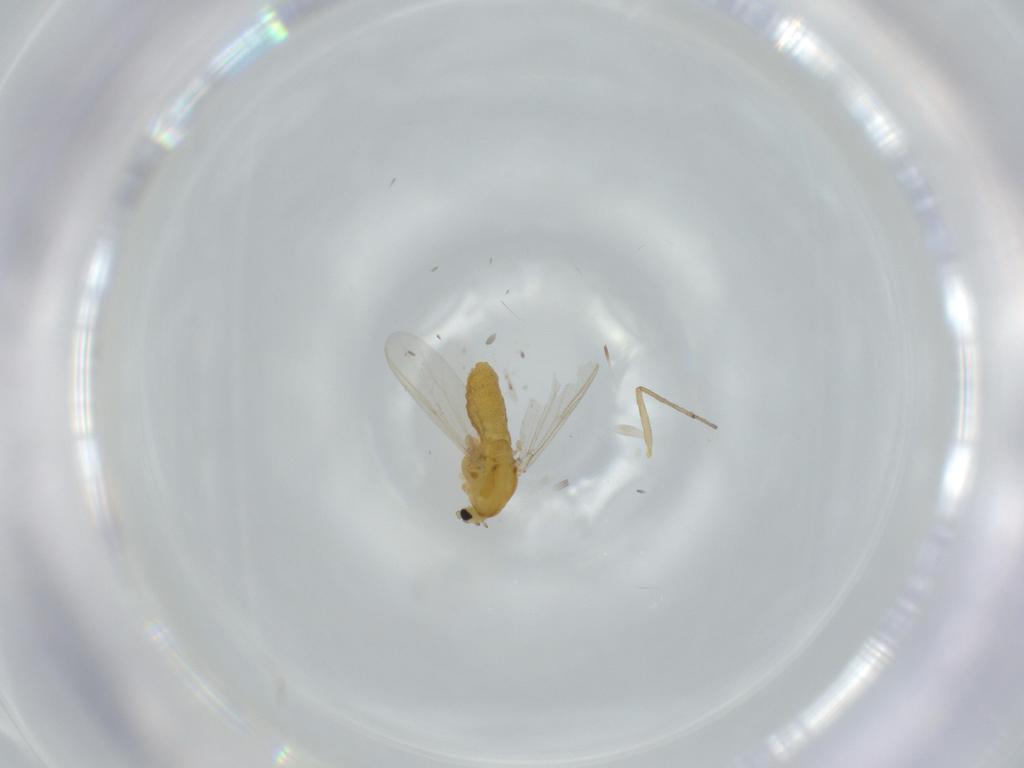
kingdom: Animalia
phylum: Arthropoda
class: Insecta
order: Diptera
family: Chironomidae
